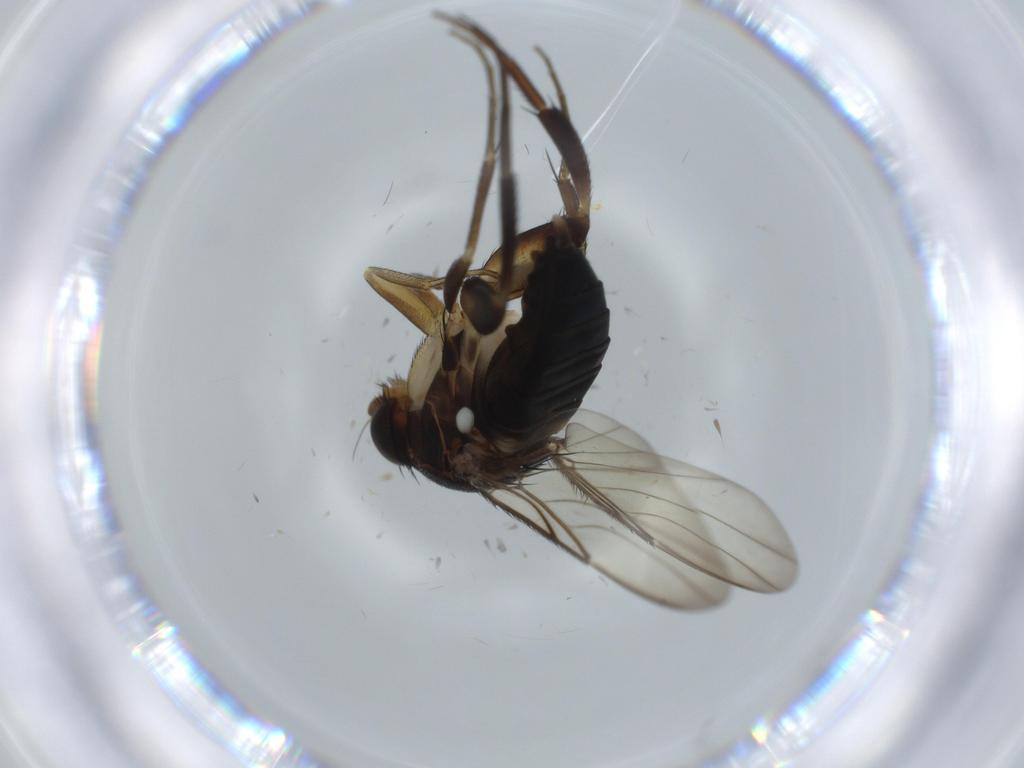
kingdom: Animalia
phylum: Arthropoda
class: Insecta
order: Diptera
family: Phoridae
